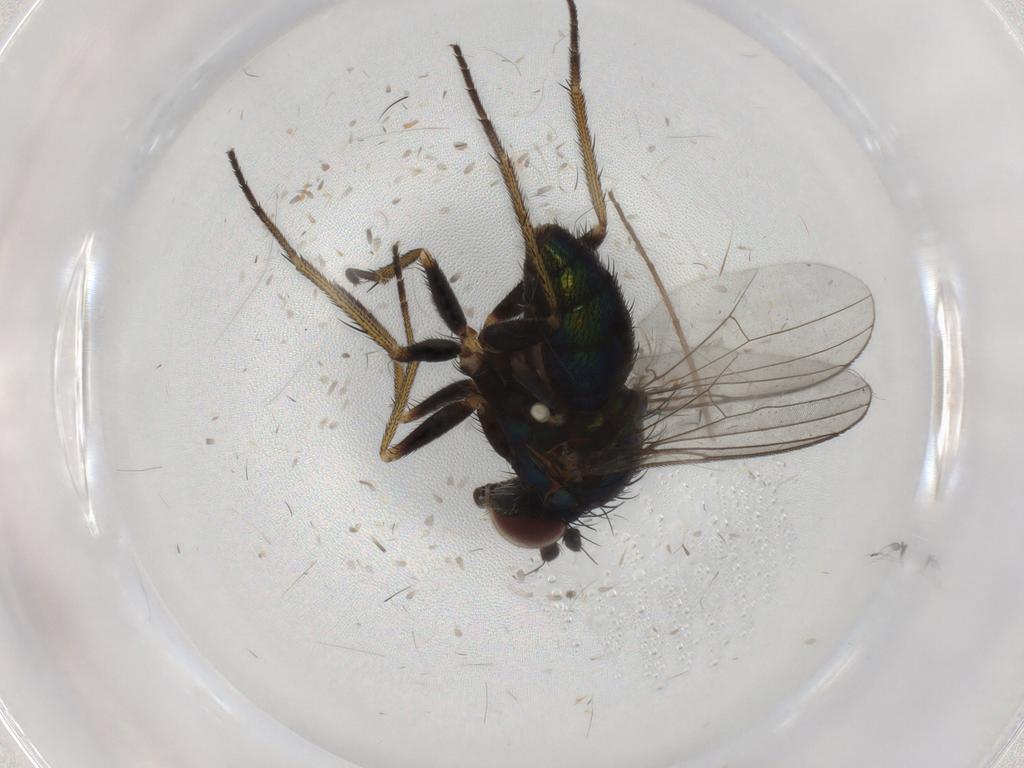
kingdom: Animalia
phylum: Arthropoda
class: Insecta
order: Diptera
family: Dolichopodidae
